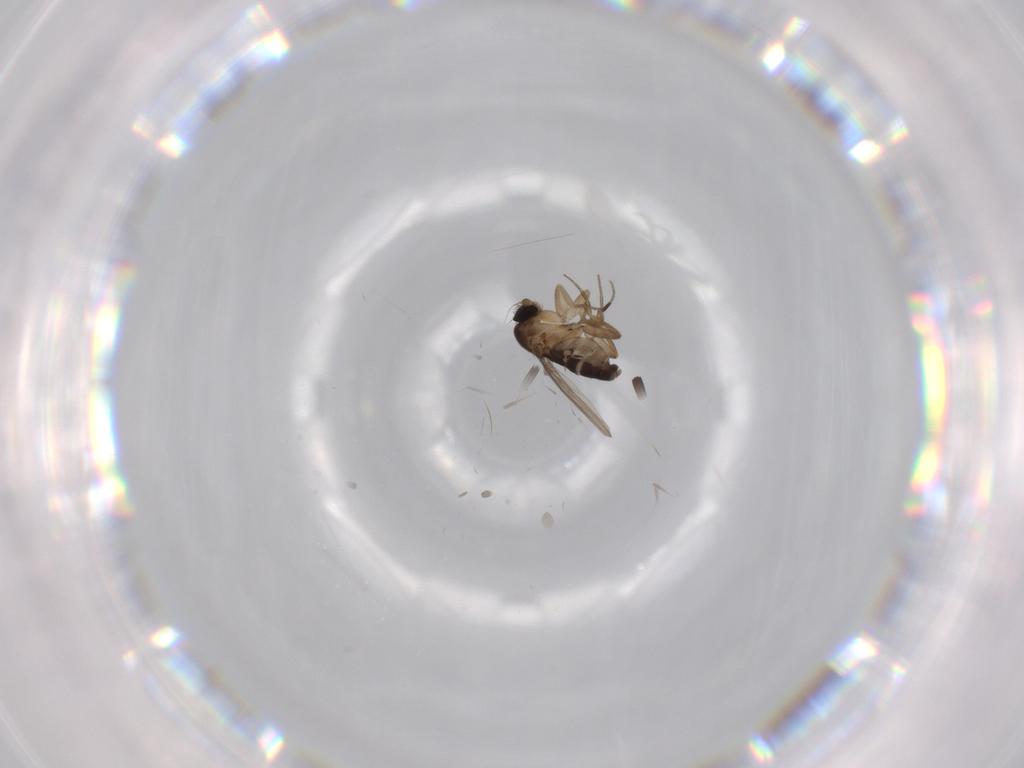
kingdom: Animalia
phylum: Arthropoda
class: Insecta
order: Diptera
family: Phoridae
